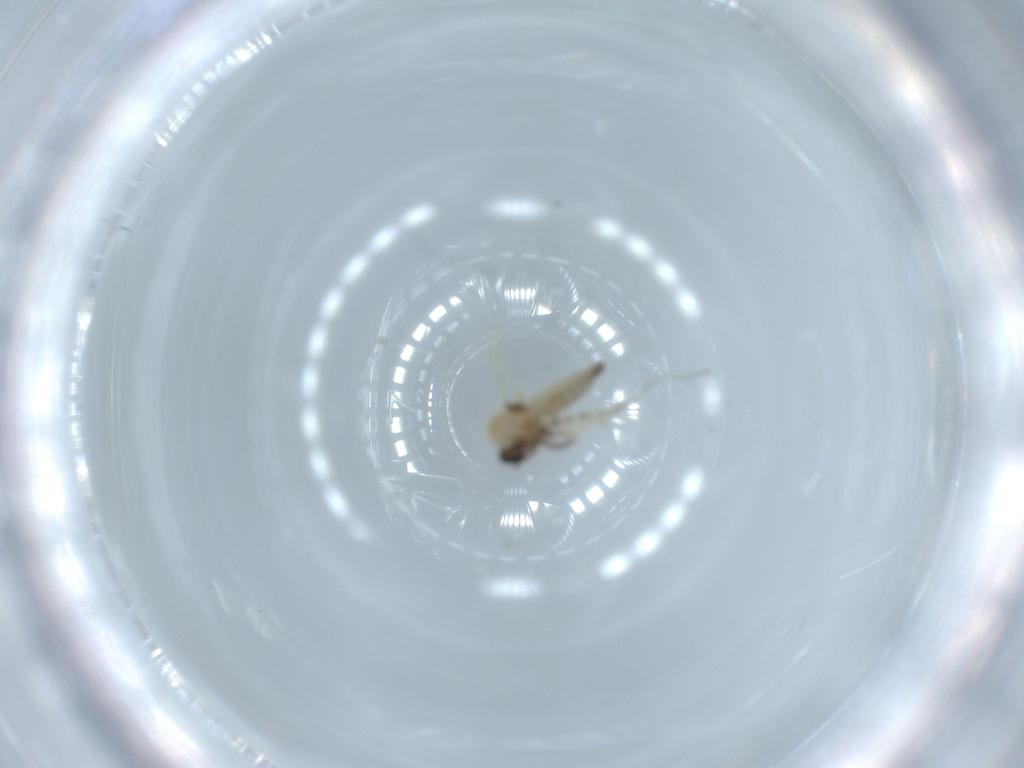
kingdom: Animalia
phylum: Arthropoda
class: Insecta
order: Diptera
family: Ceratopogonidae
